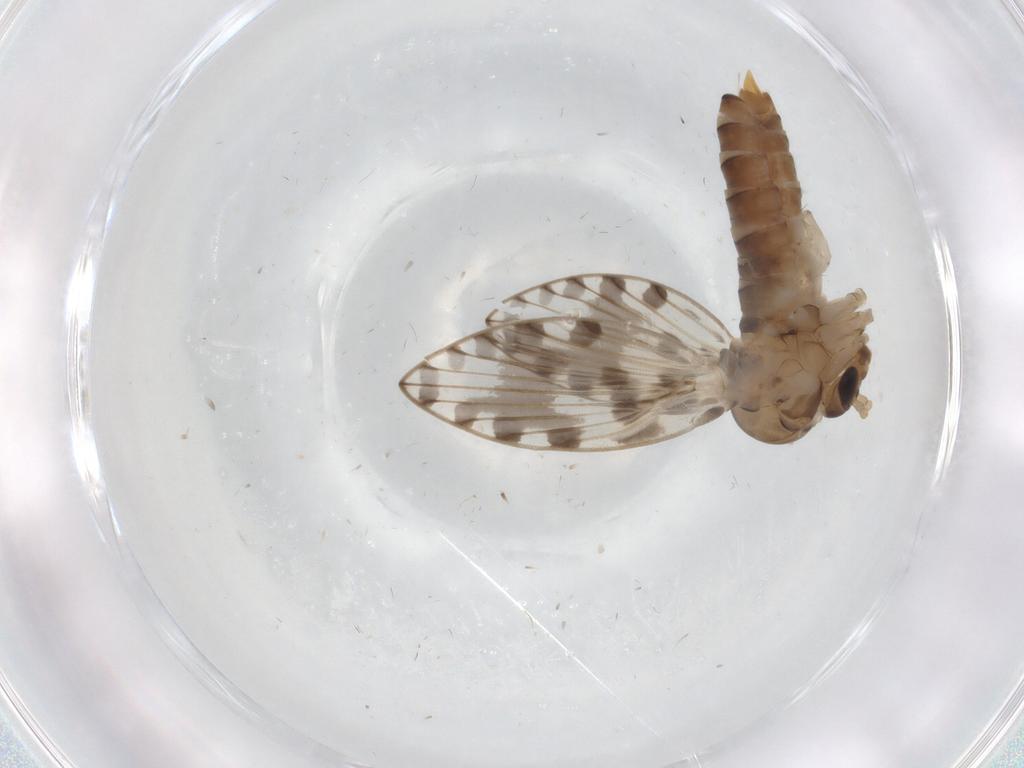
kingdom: Animalia
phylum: Arthropoda
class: Insecta
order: Diptera
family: Psychodidae
